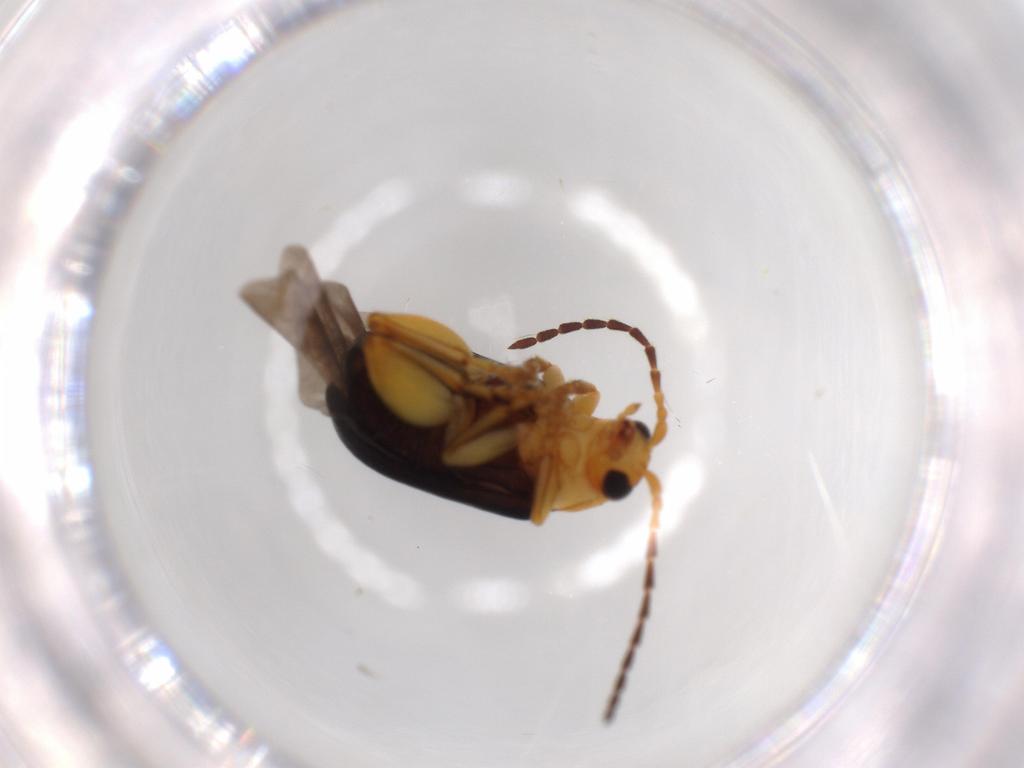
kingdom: Animalia
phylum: Arthropoda
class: Insecta
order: Coleoptera
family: Chrysomelidae
